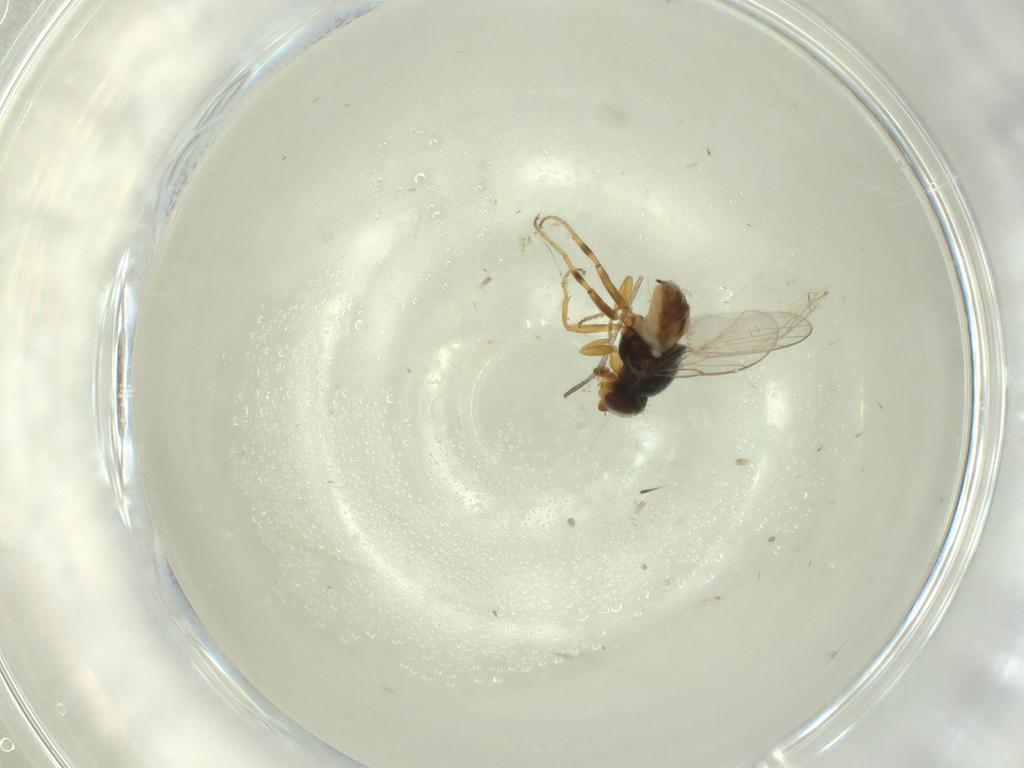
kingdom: Animalia
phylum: Arthropoda
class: Insecta
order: Diptera
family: Chloropidae
